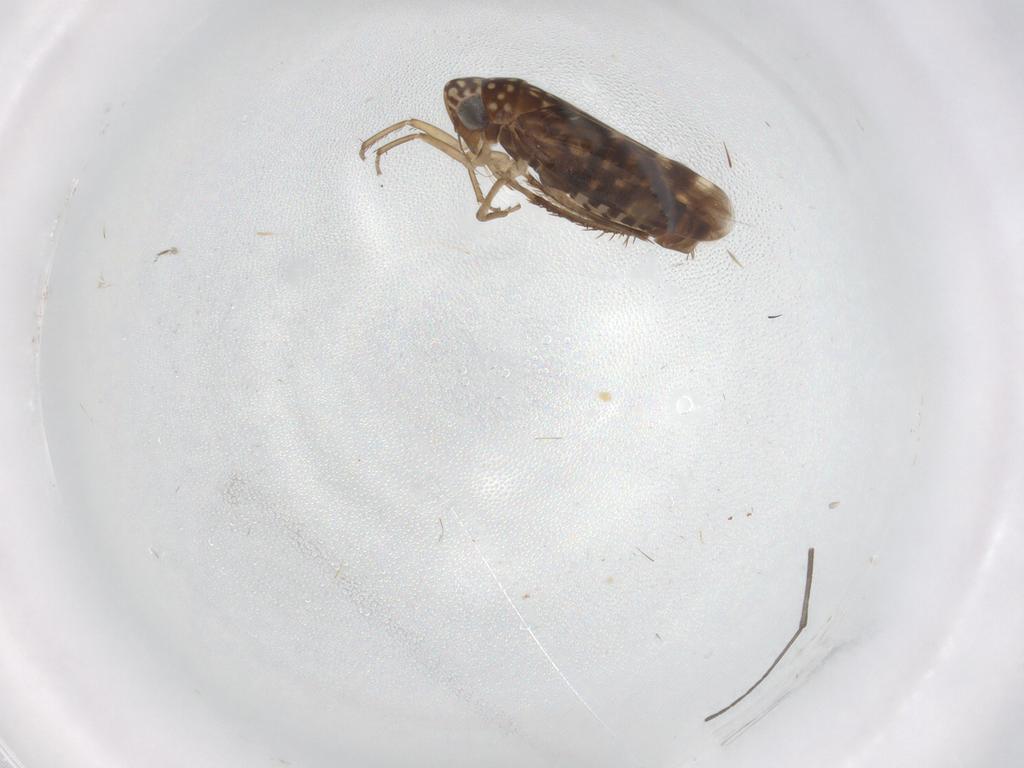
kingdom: Animalia
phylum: Arthropoda
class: Insecta
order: Hemiptera
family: Cicadellidae
